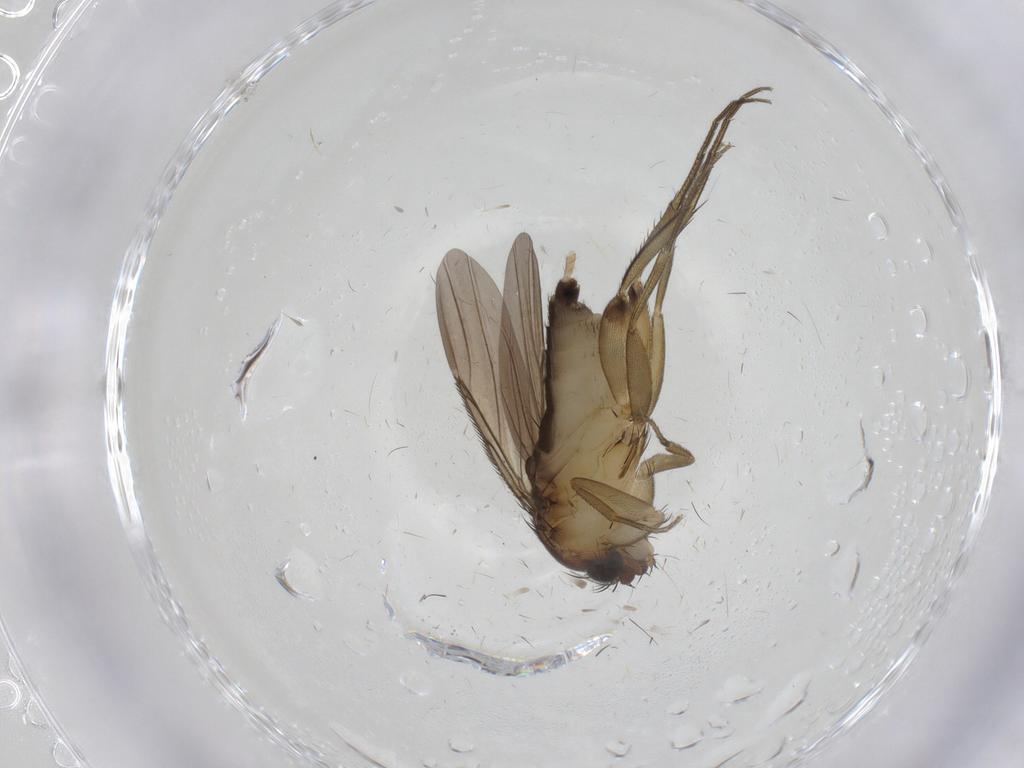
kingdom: Animalia
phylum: Arthropoda
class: Insecta
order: Diptera
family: Phoridae
